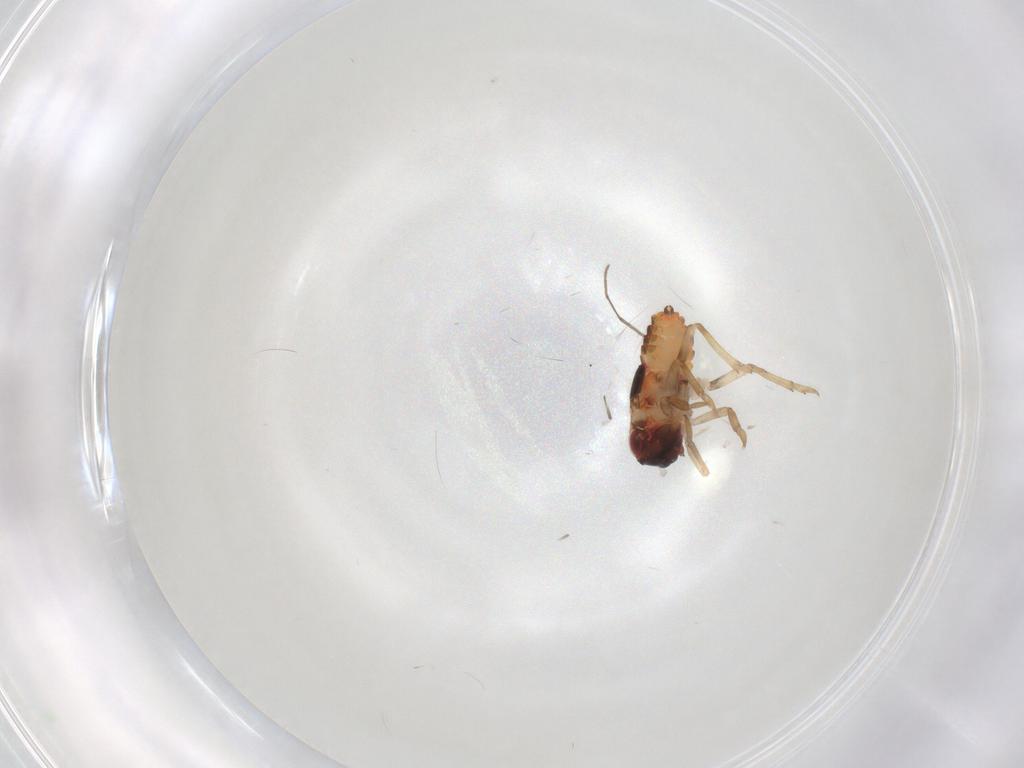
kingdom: Animalia
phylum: Arthropoda
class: Insecta
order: Hemiptera
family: Issidae
